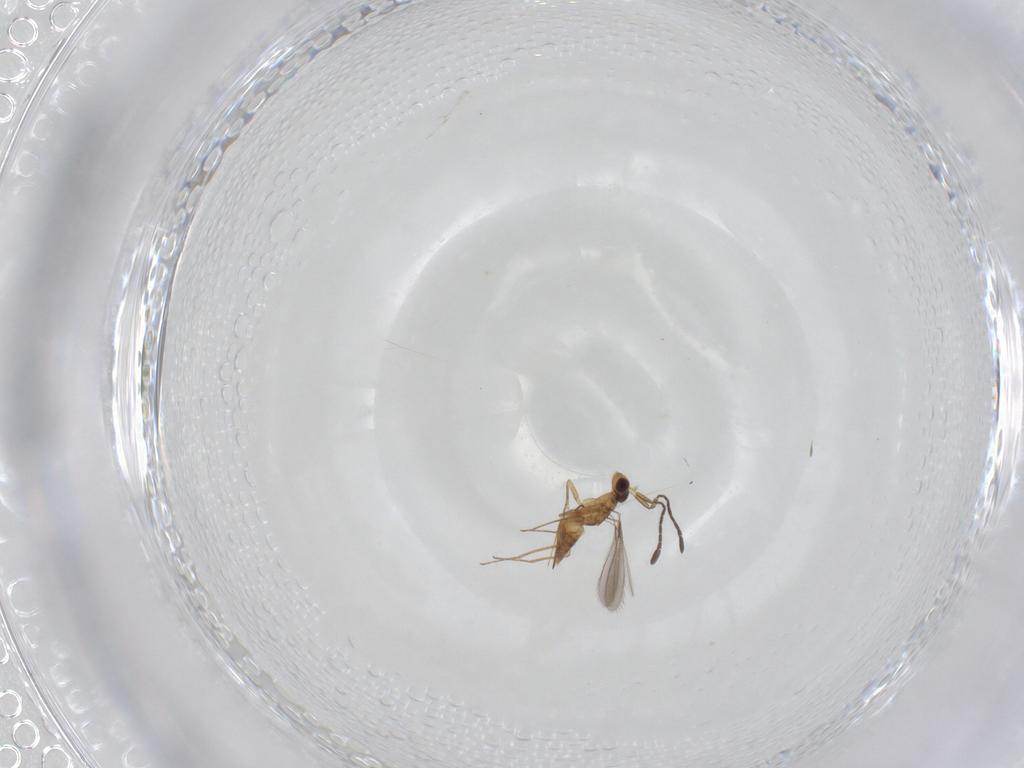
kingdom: Animalia
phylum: Arthropoda
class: Insecta
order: Hymenoptera
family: Mymaridae
